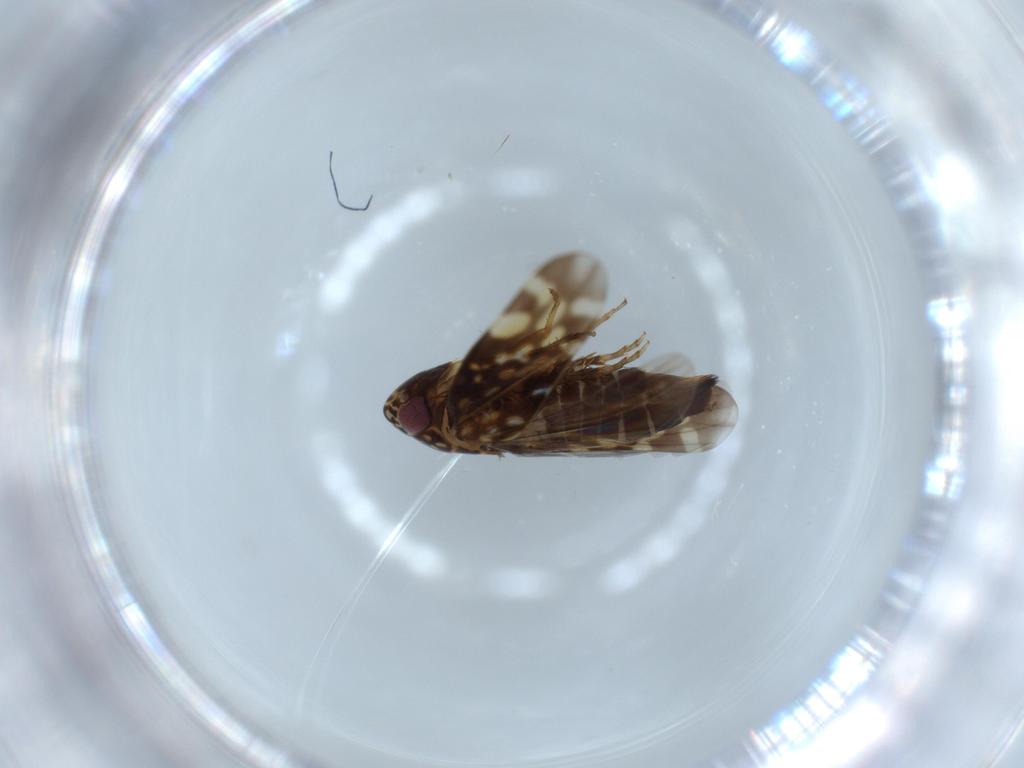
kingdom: Animalia
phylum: Arthropoda
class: Insecta
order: Hemiptera
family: Cicadellidae
